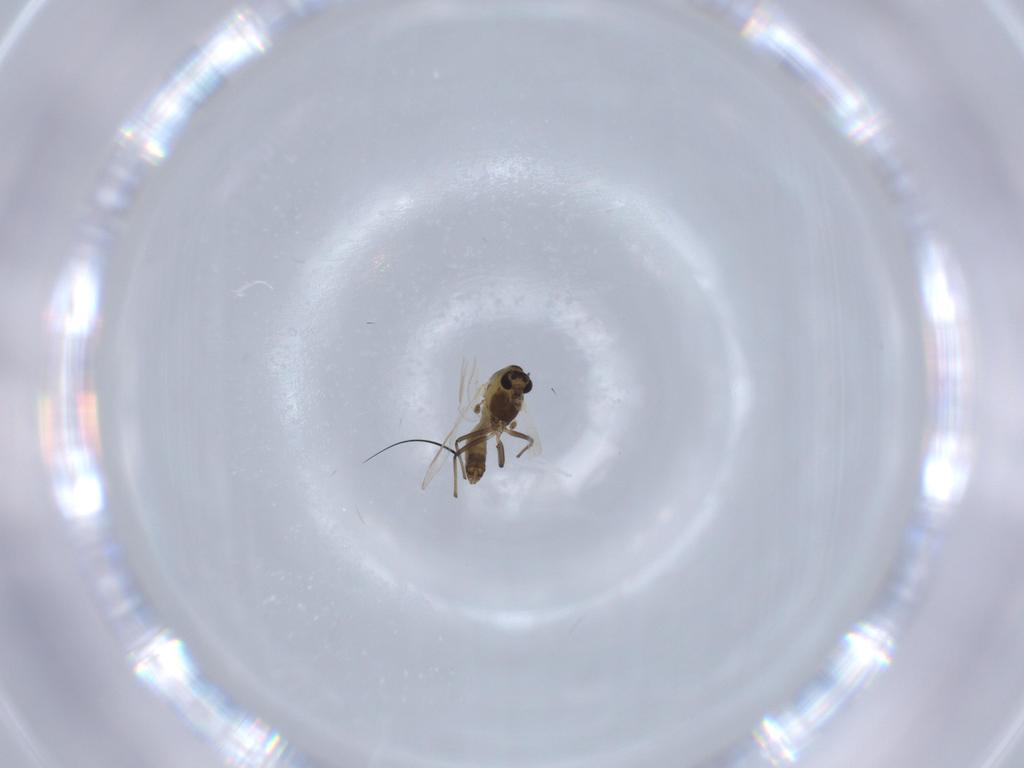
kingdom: Animalia
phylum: Arthropoda
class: Insecta
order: Diptera
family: Chironomidae
